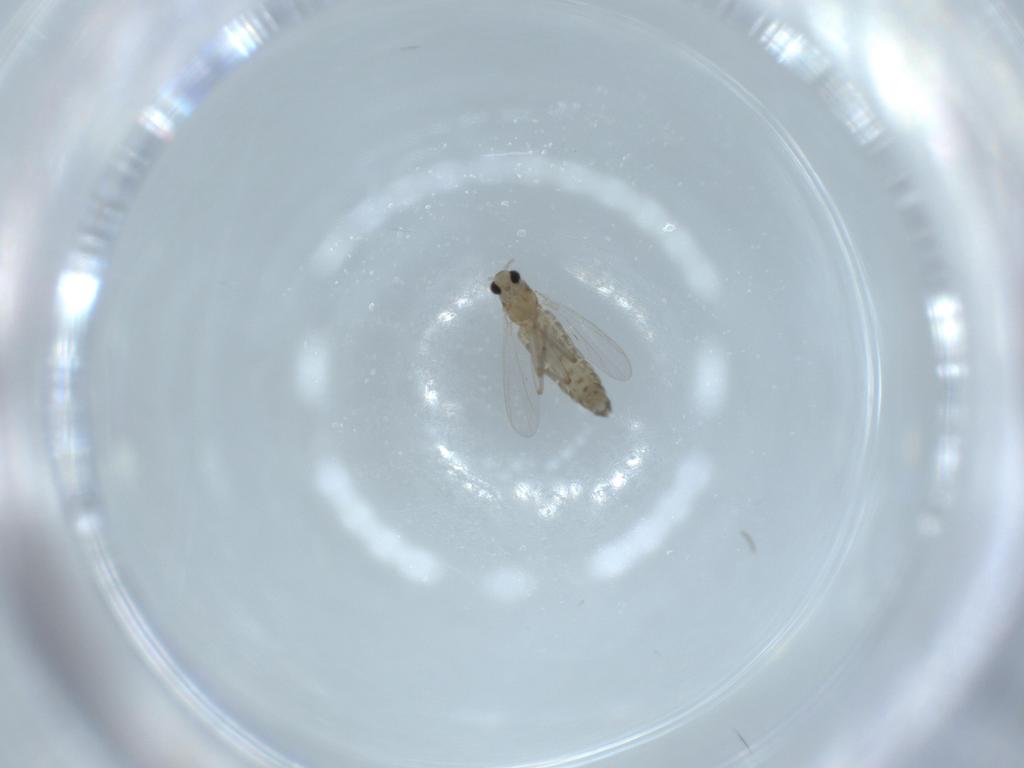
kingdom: Animalia
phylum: Arthropoda
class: Insecta
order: Diptera
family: Chironomidae
